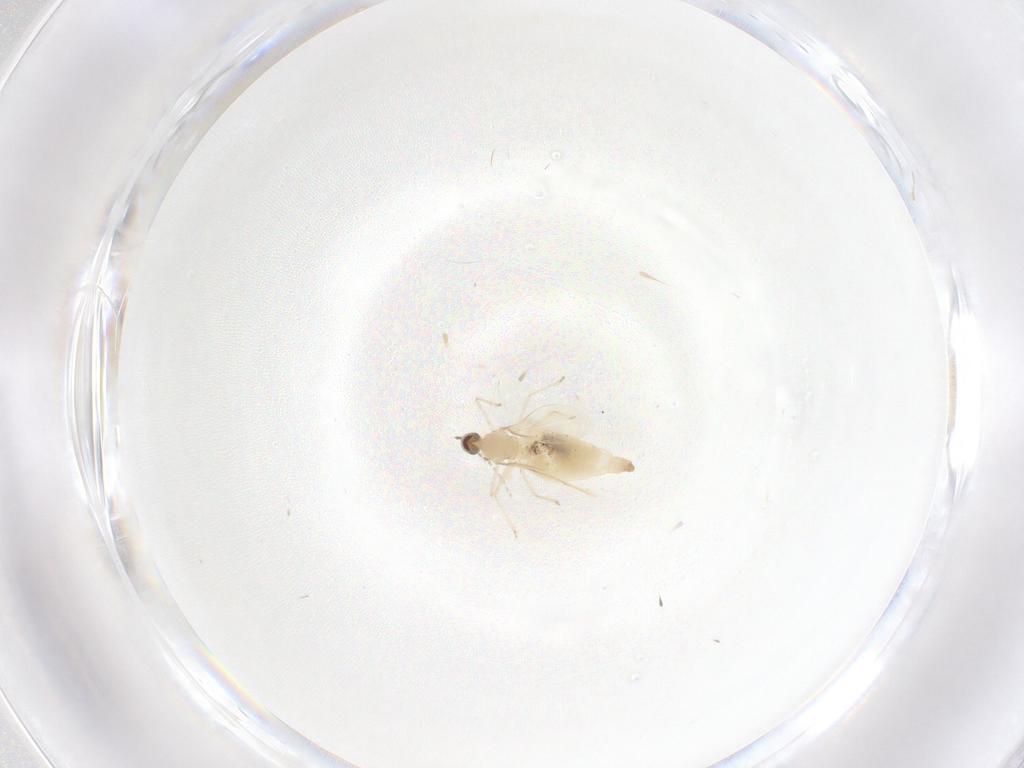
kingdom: Animalia
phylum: Arthropoda
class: Insecta
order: Diptera
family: Cecidomyiidae
